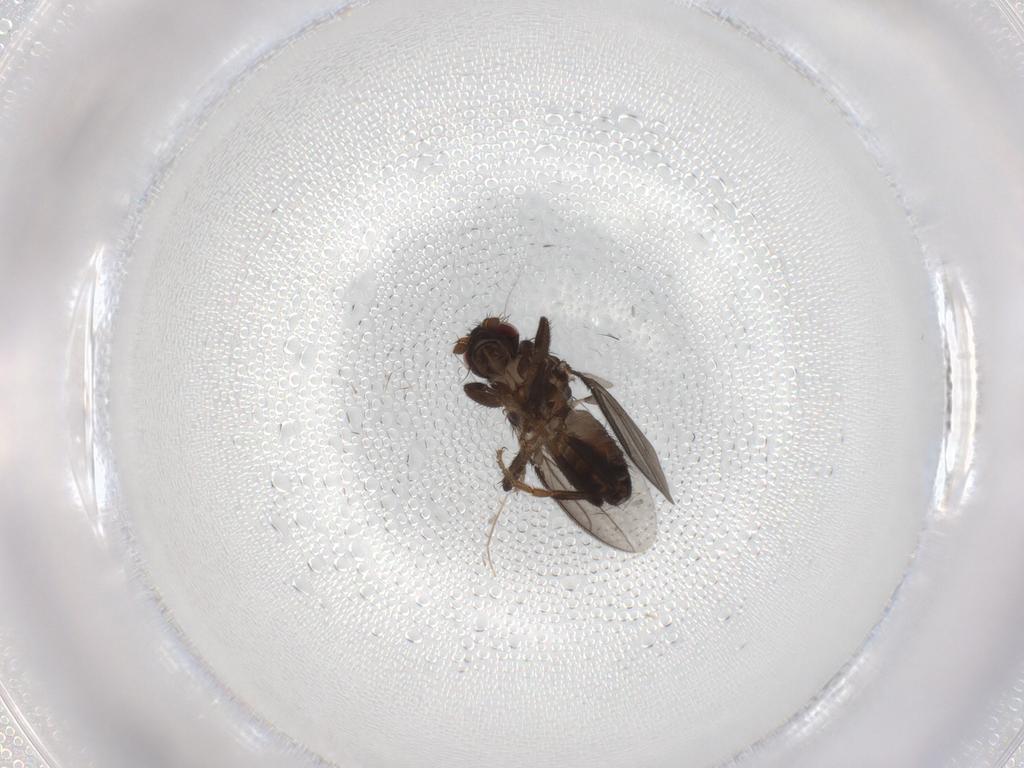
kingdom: Animalia
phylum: Arthropoda
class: Insecta
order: Diptera
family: Sphaeroceridae
